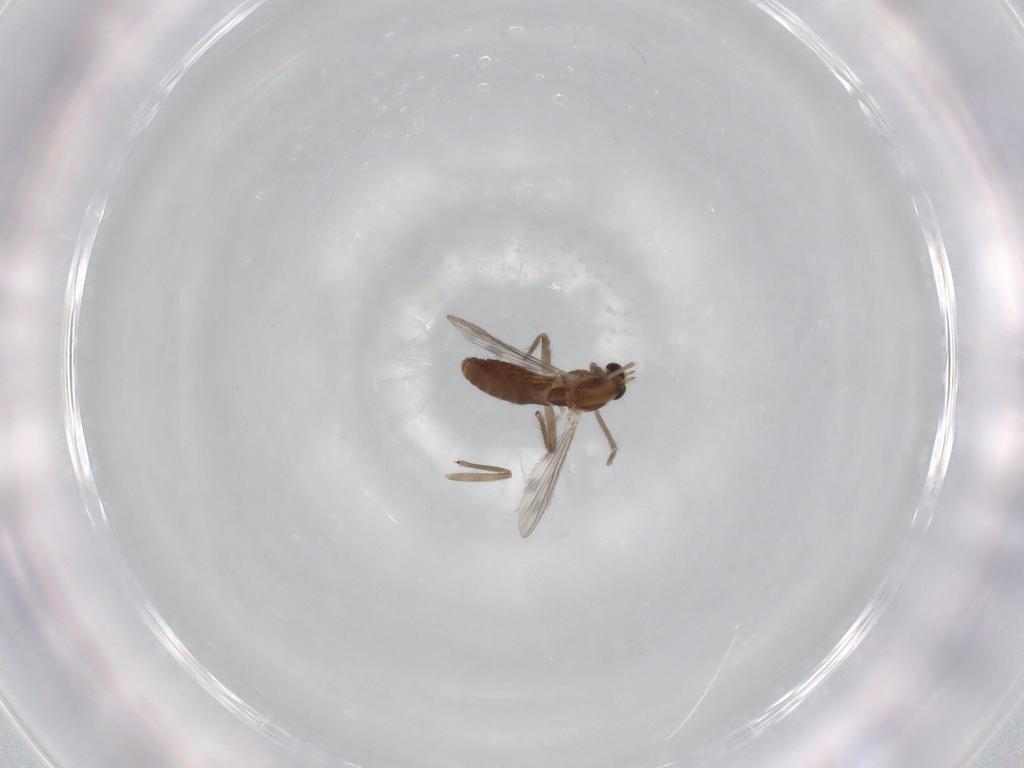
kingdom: Animalia
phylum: Arthropoda
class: Insecta
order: Diptera
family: Chironomidae
